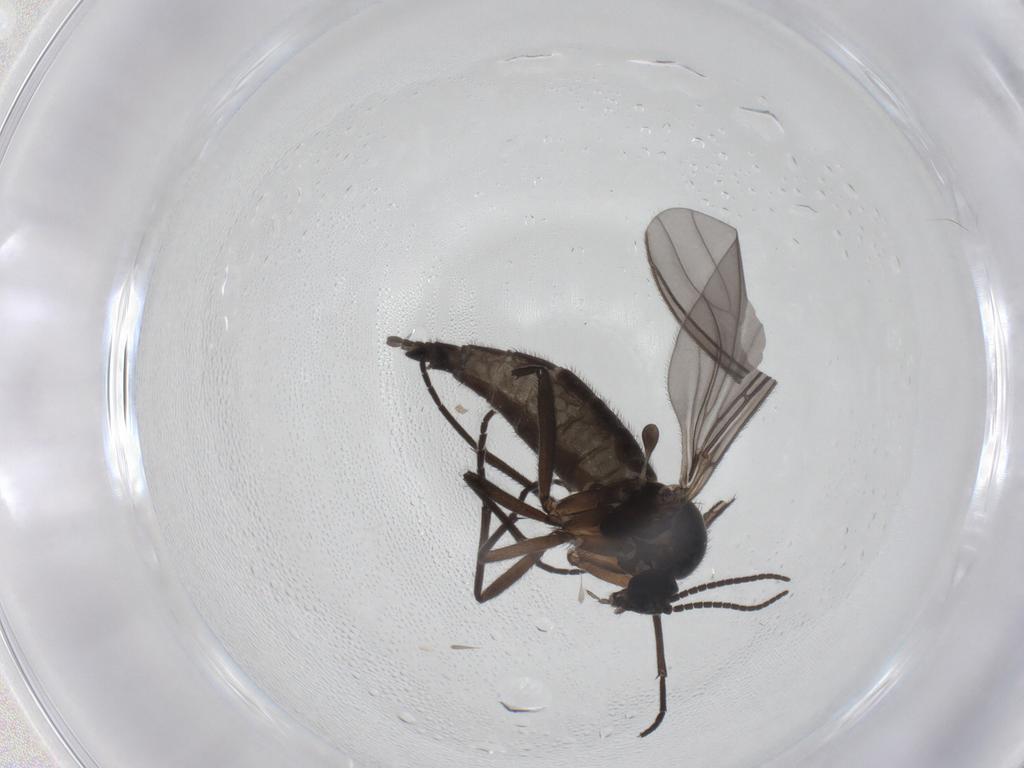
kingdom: Animalia
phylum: Arthropoda
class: Insecta
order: Diptera
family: Sciaridae
